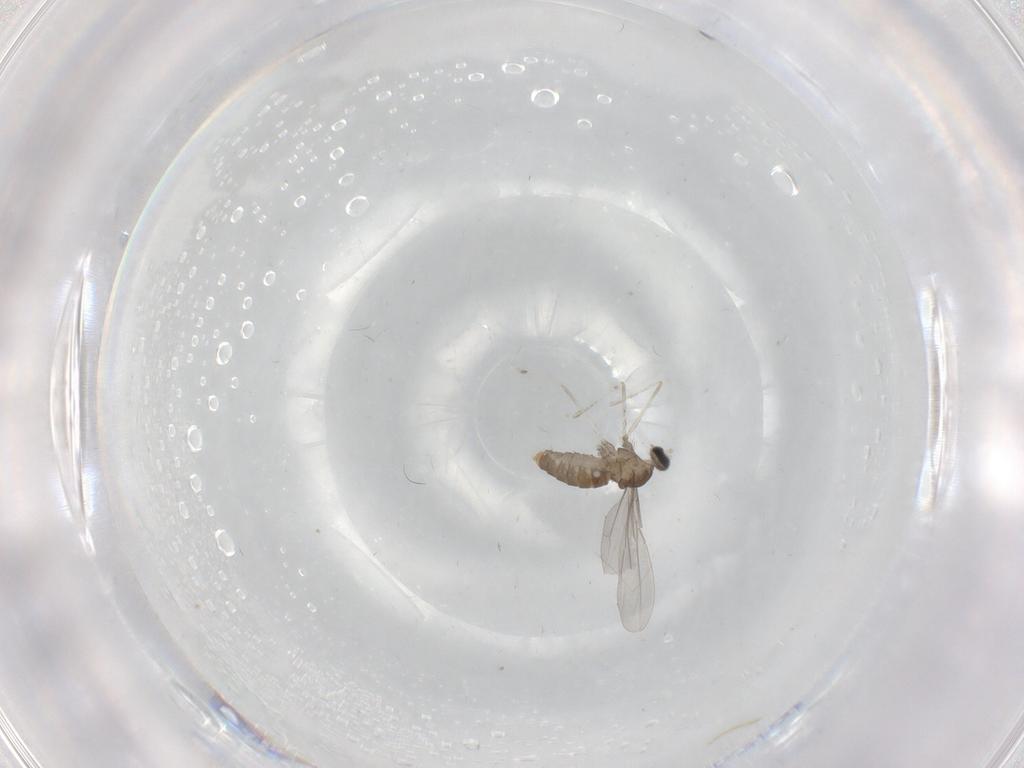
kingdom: Animalia
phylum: Arthropoda
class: Insecta
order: Diptera
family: Cecidomyiidae
